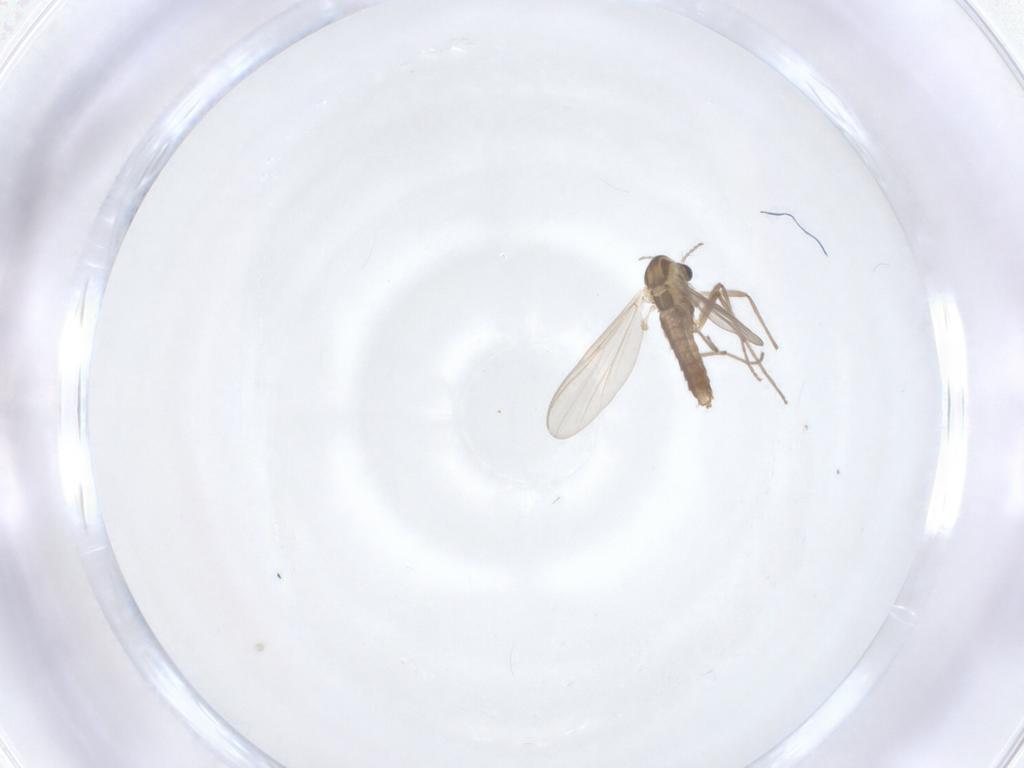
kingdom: Animalia
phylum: Arthropoda
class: Insecta
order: Diptera
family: Chironomidae
